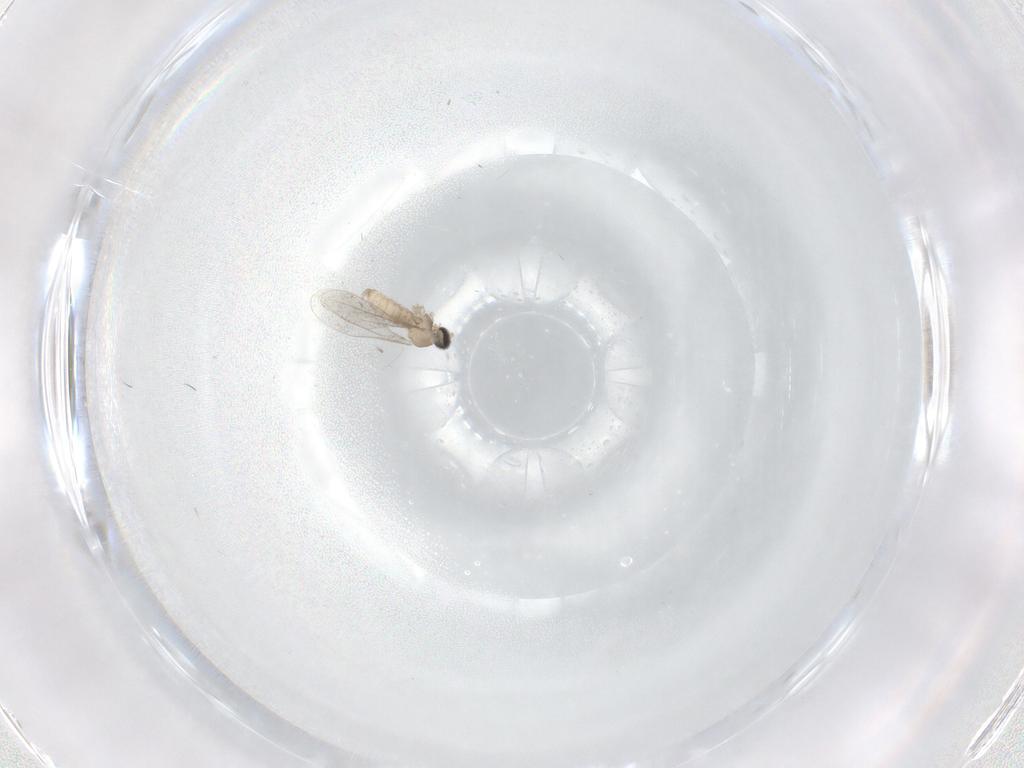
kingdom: Animalia
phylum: Arthropoda
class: Insecta
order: Diptera
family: Cecidomyiidae
